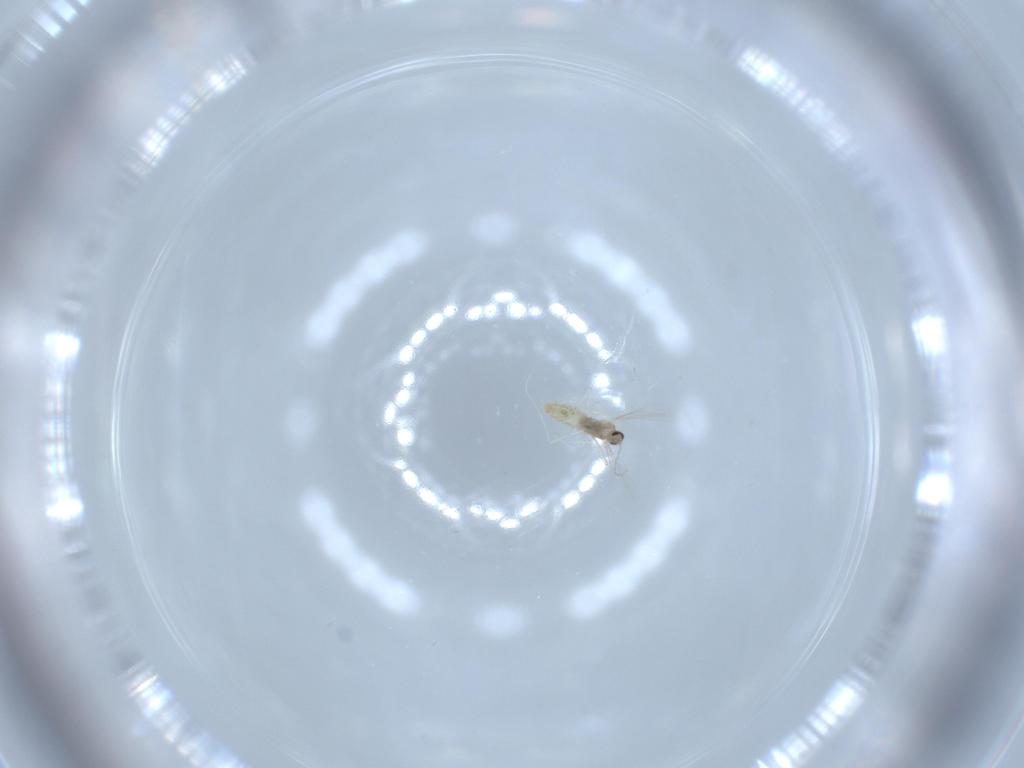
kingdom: Animalia
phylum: Arthropoda
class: Insecta
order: Diptera
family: Cecidomyiidae
